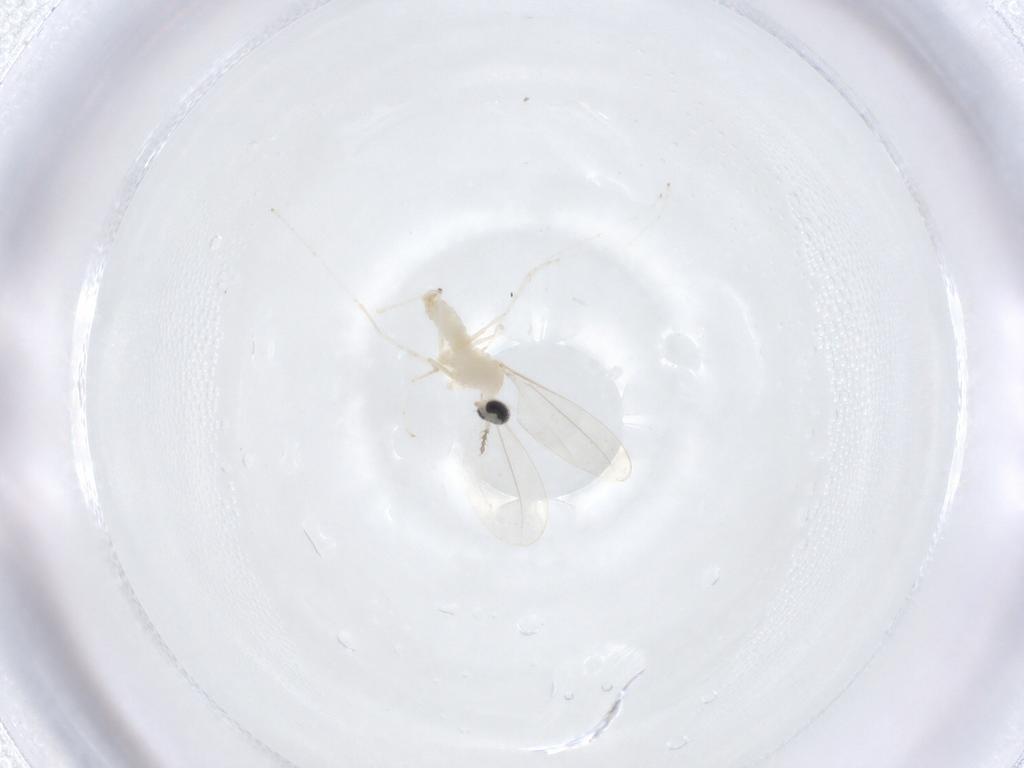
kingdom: Animalia
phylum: Arthropoda
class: Insecta
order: Diptera
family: Cecidomyiidae
